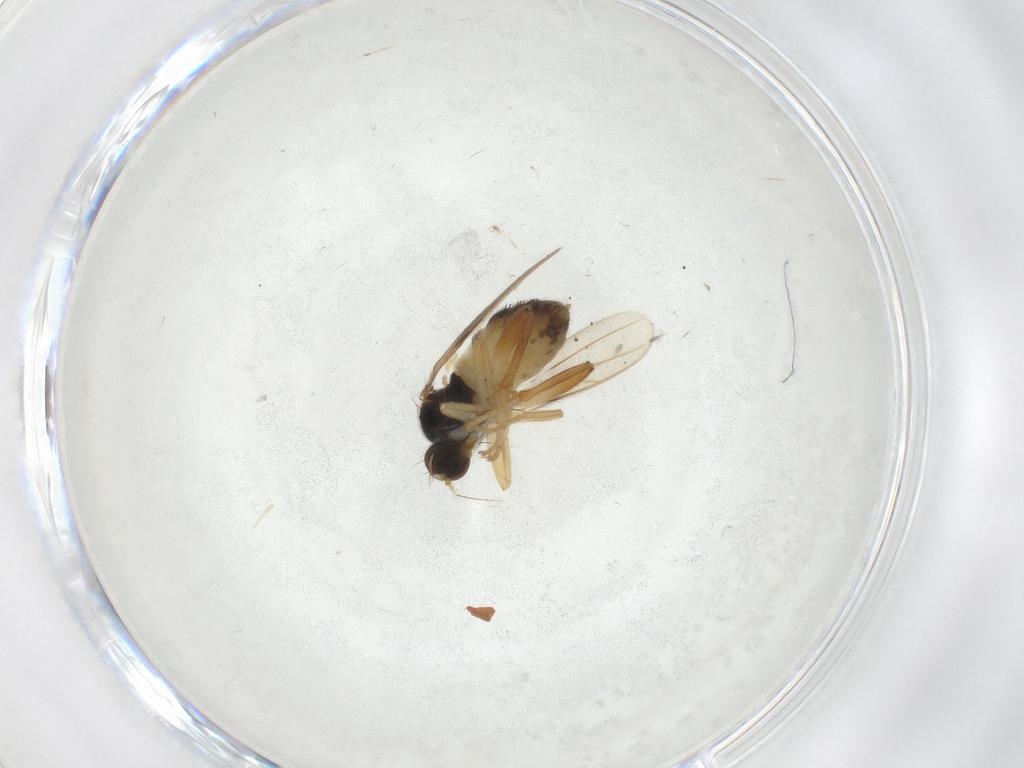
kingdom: Animalia
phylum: Arthropoda
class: Insecta
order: Diptera
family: Hybotidae
